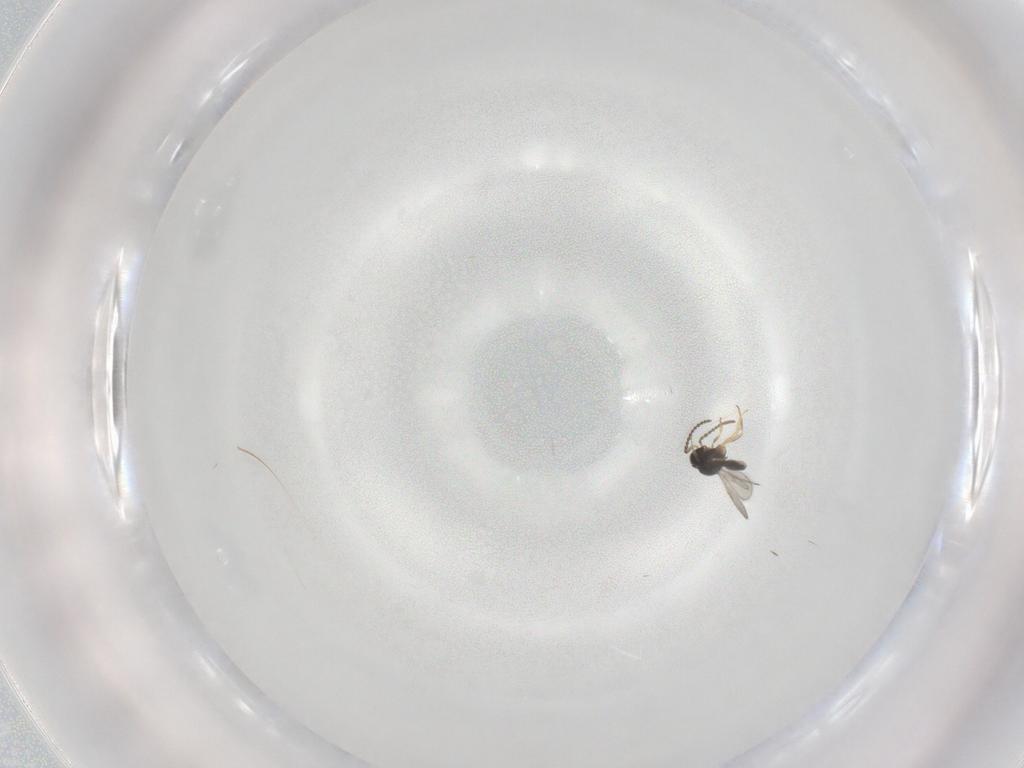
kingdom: Animalia
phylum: Arthropoda
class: Insecta
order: Hymenoptera
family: Scelionidae
